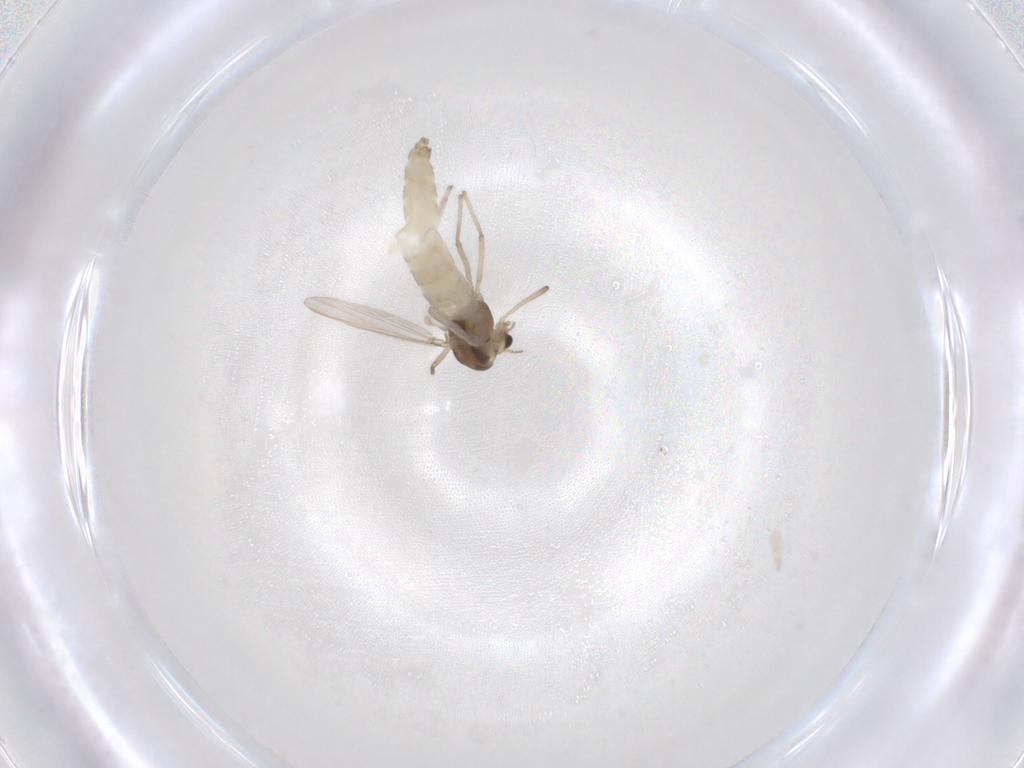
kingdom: Animalia
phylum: Arthropoda
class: Insecta
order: Diptera
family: Chironomidae
